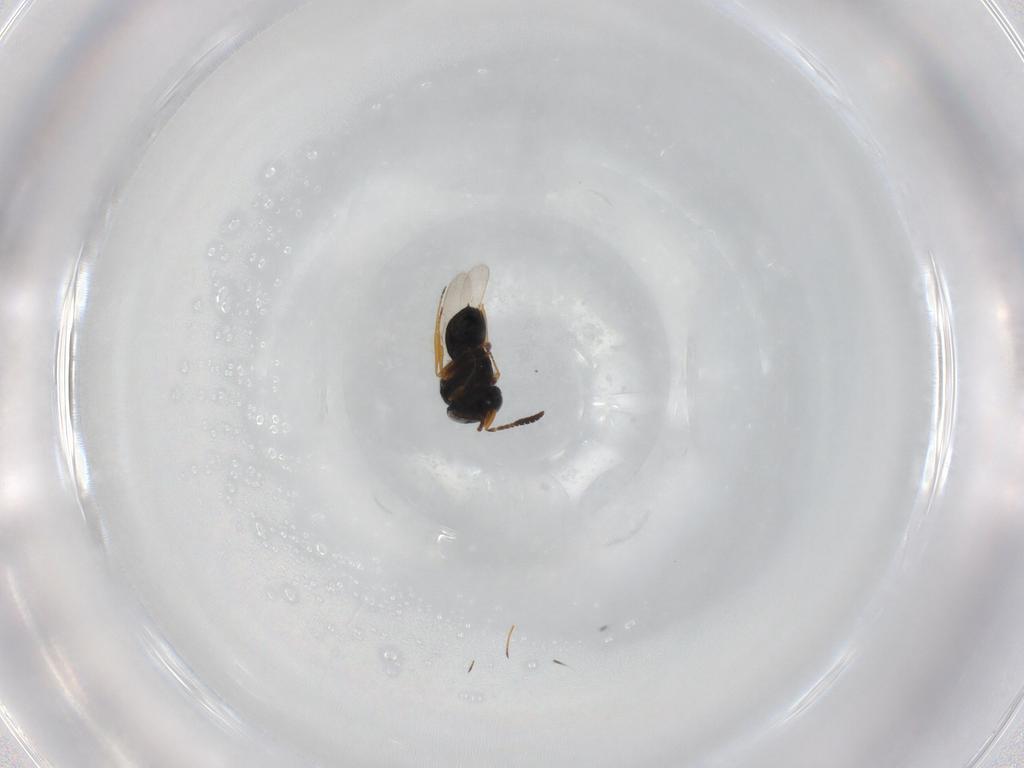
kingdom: Animalia
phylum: Arthropoda
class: Insecta
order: Hymenoptera
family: Scelionidae
